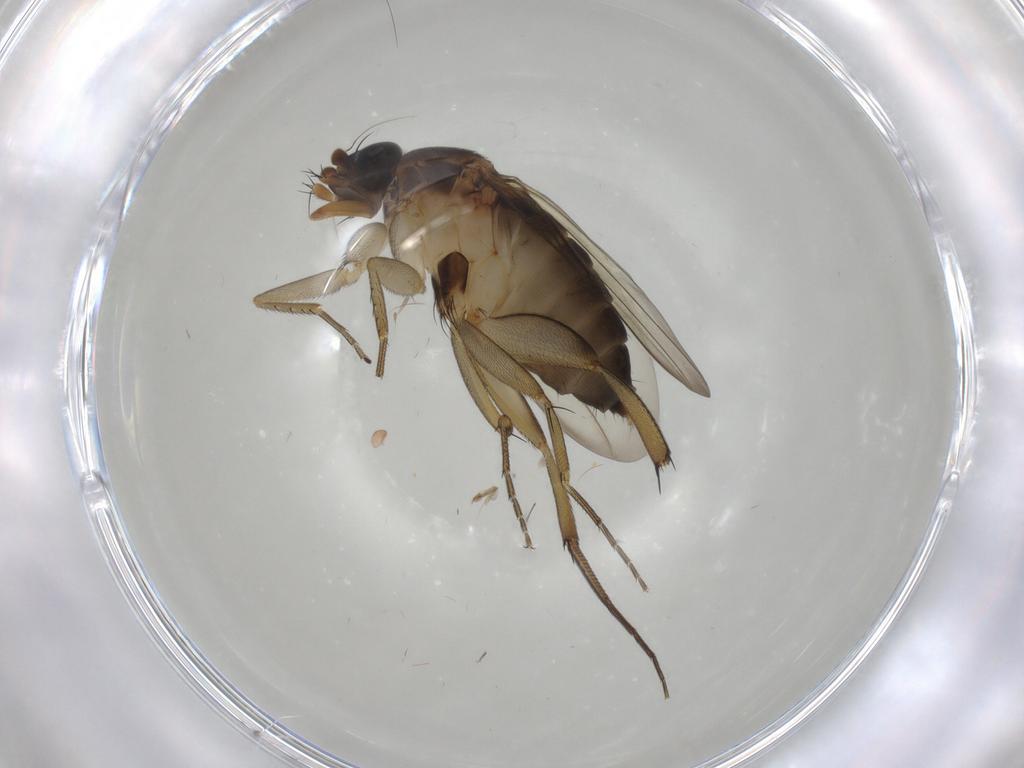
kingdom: Animalia
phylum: Arthropoda
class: Insecta
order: Diptera
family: Phoridae
